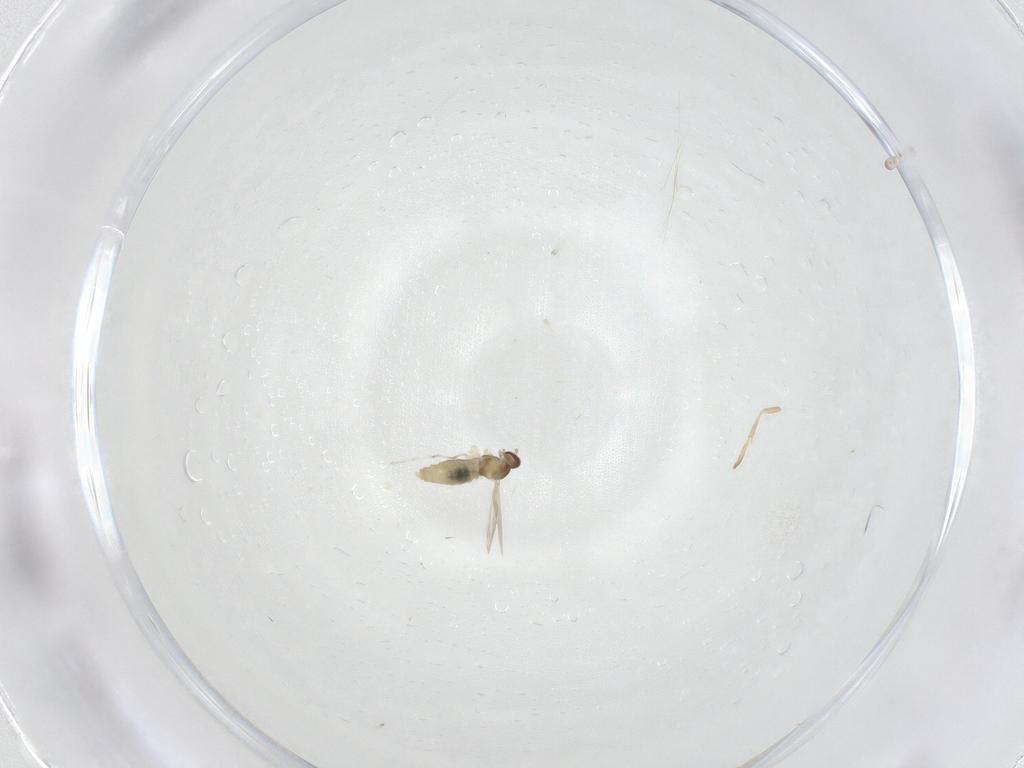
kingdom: Animalia
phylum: Arthropoda
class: Insecta
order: Diptera
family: Cecidomyiidae
